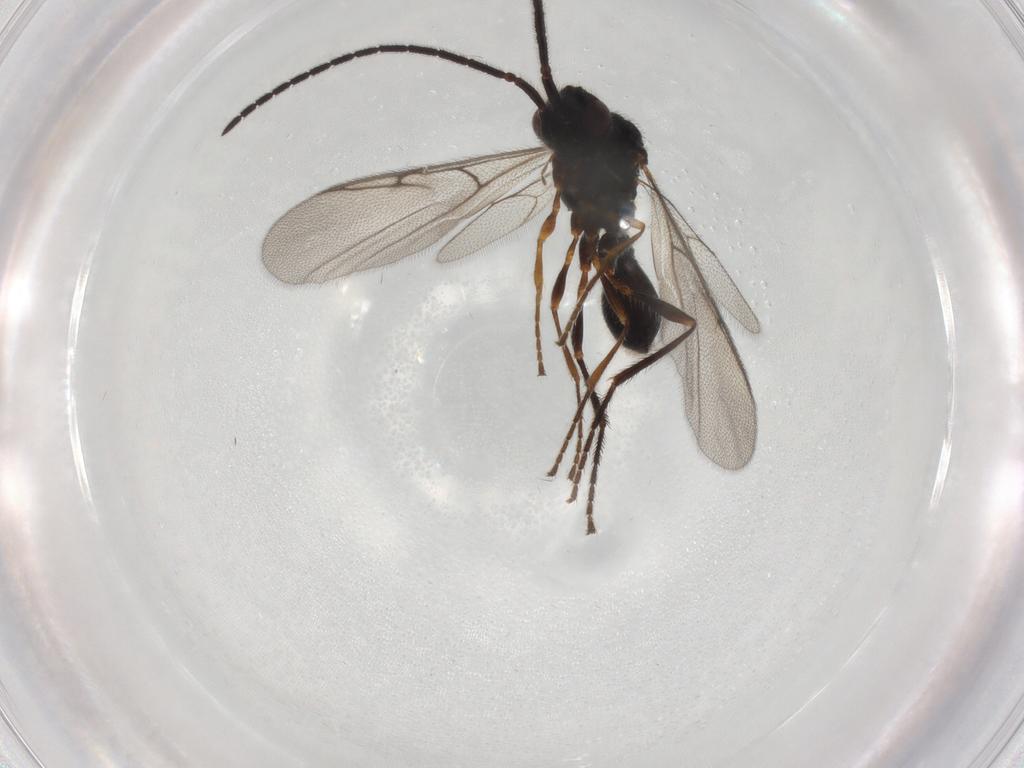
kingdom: Animalia
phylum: Arthropoda
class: Insecta
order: Hymenoptera
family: Diapriidae
